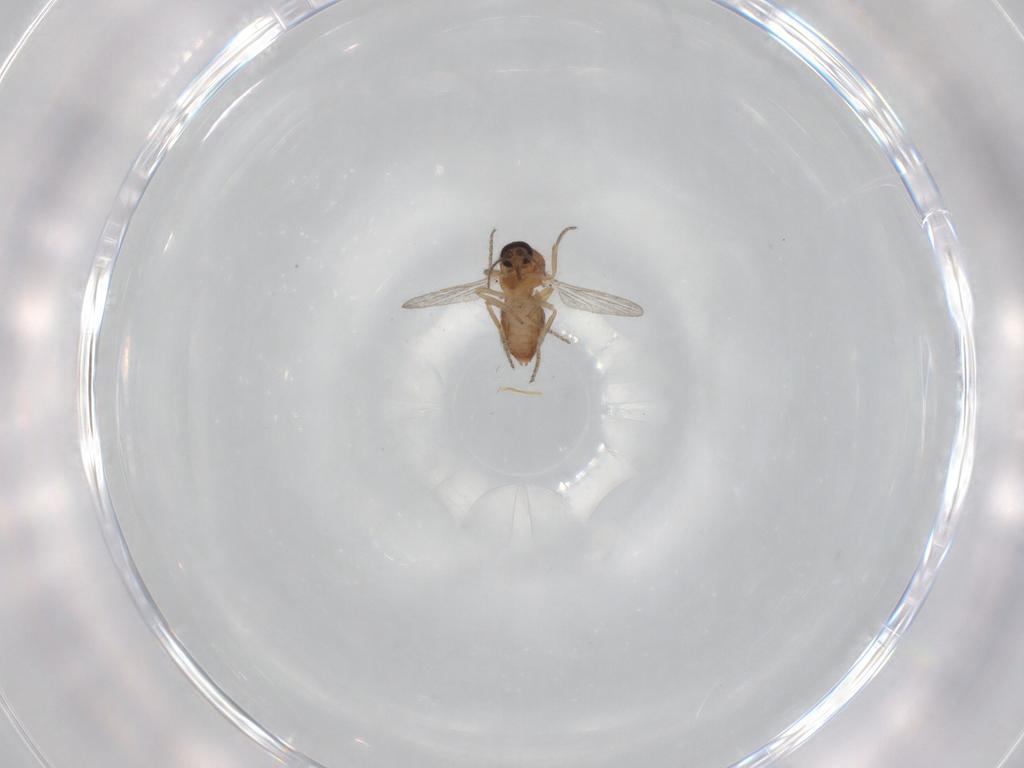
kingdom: Animalia
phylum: Arthropoda
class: Insecta
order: Diptera
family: Ceratopogonidae
